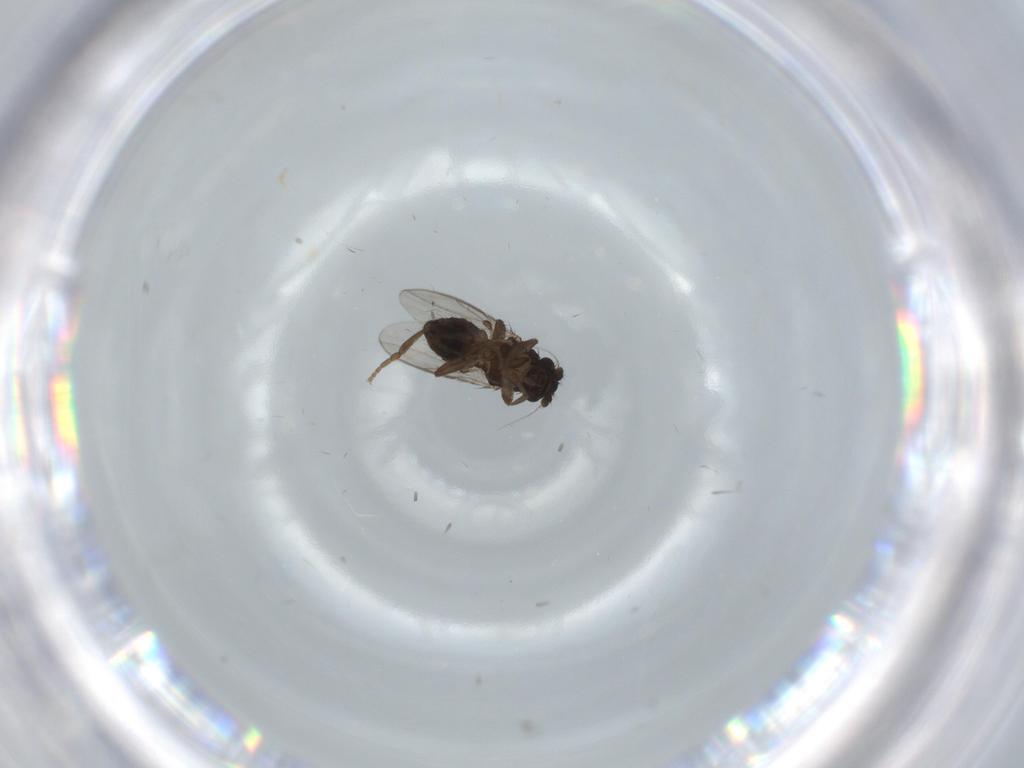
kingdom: Animalia
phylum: Arthropoda
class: Insecta
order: Diptera
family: Sphaeroceridae
